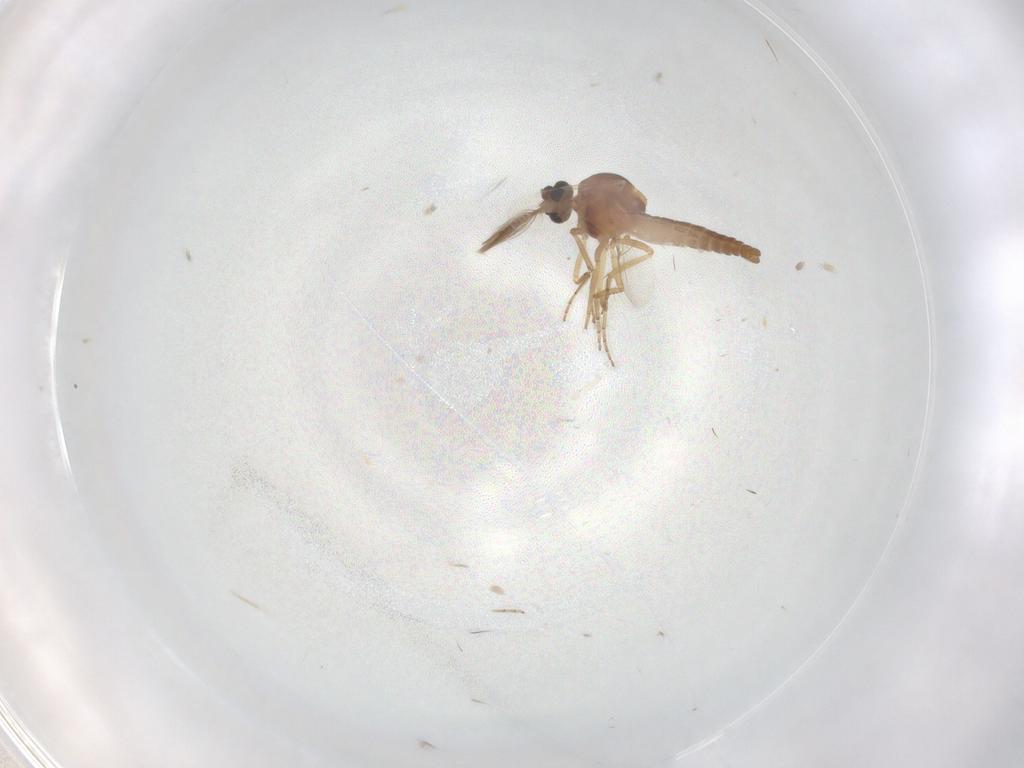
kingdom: Animalia
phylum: Arthropoda
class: Insecta
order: Diptera
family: Ceratopogonidae
